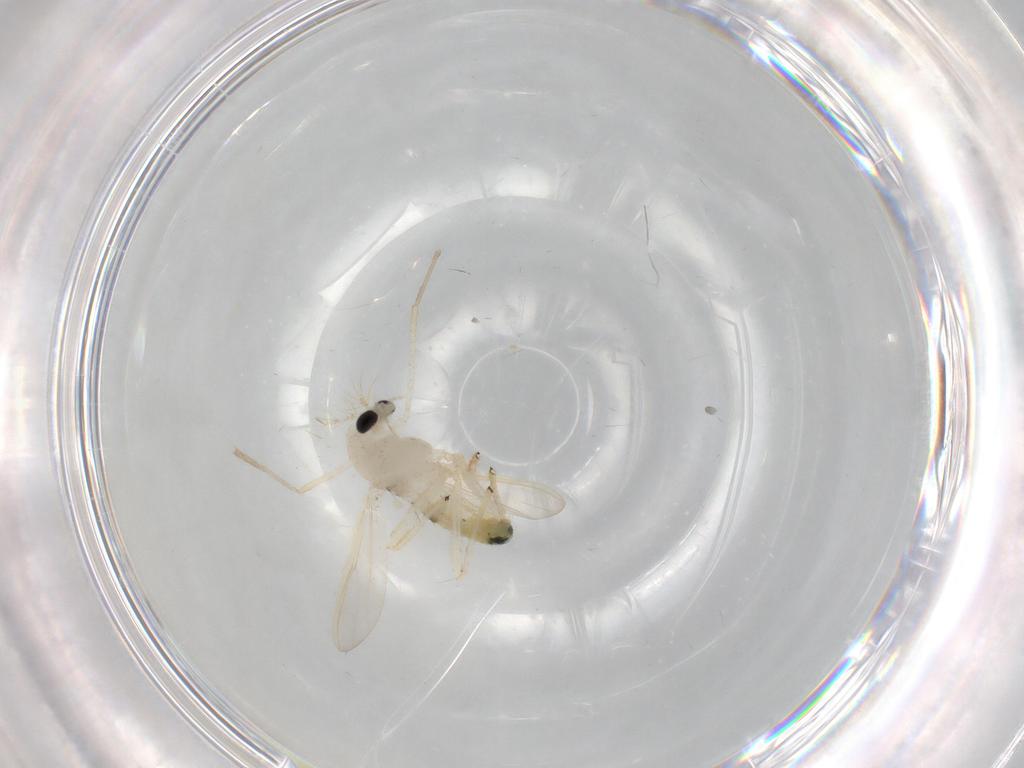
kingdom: Animalia
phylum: Arthropoda
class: Insecta
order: Diptera
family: Chironomidae
